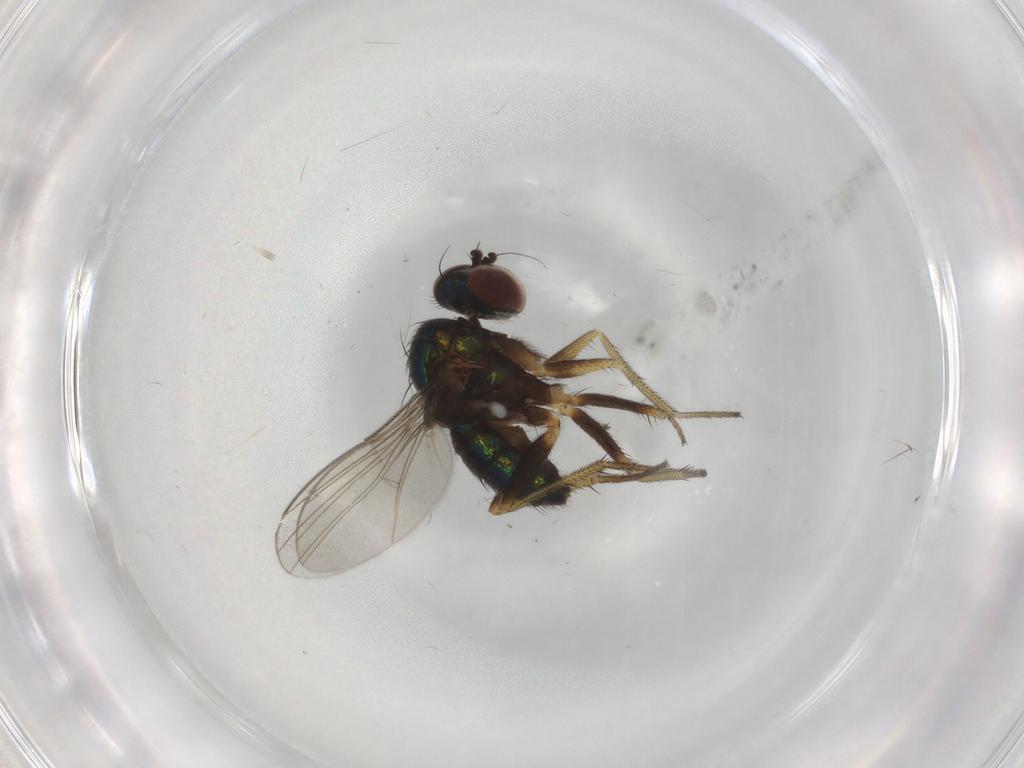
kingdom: Animalia
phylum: Arthropoda
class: Insecta
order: Diptera
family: Dolichopodidae
